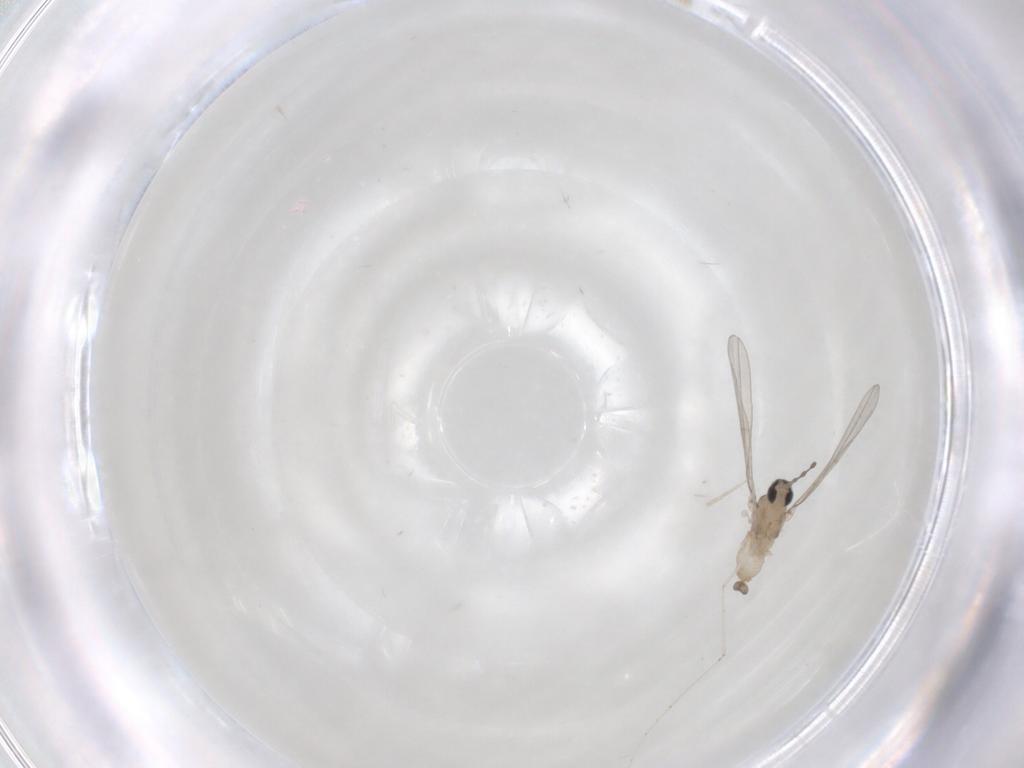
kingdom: Animalia
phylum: Arthropoda
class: Insecta
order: Diptera
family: Cecidomyiidae
